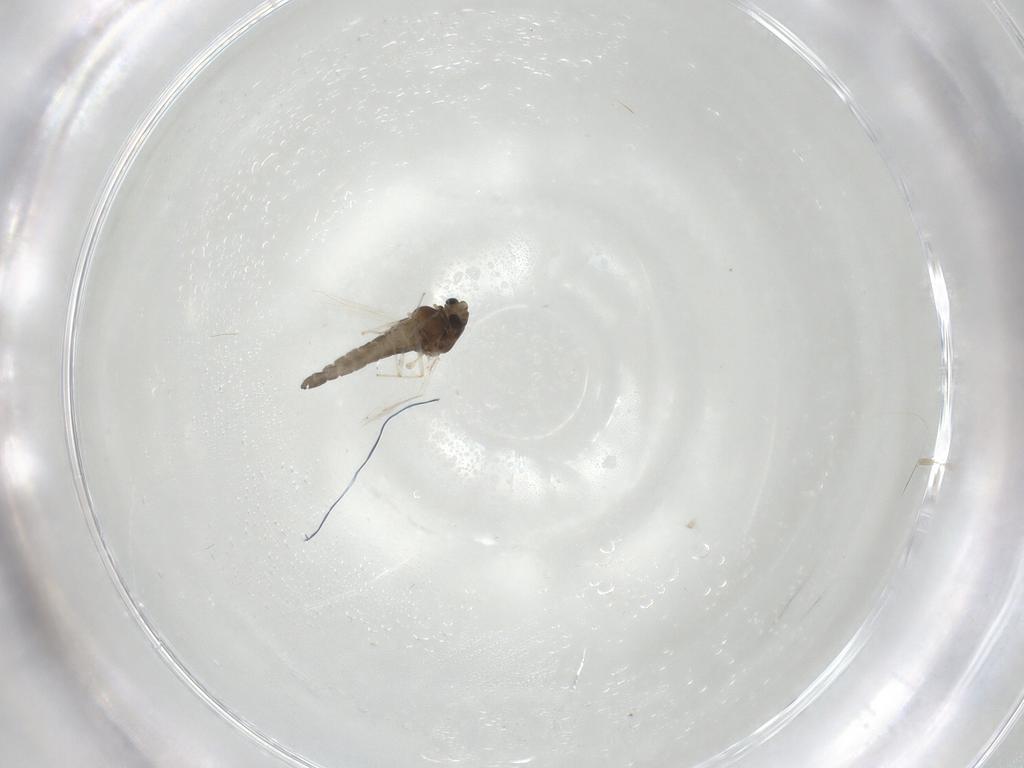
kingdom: Animalia
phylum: Arthropoda
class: Insecta
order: Diptera
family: Chironomidae
